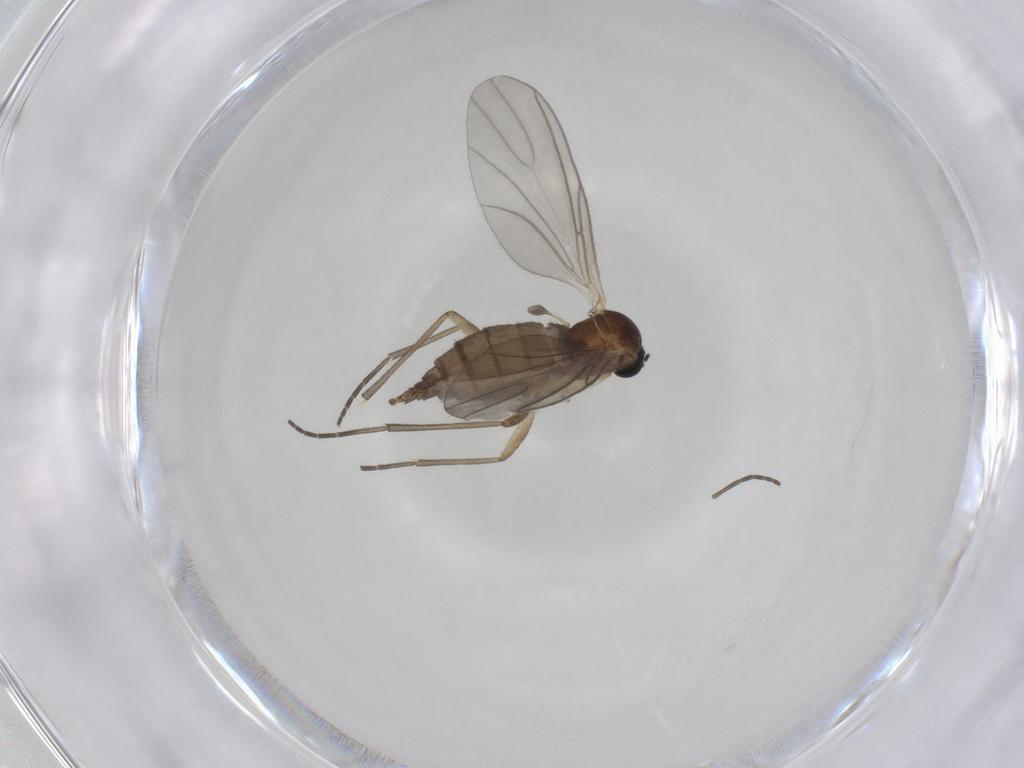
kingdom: Animalia
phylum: Arthropoda
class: Insecta
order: Diptera
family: Sciaridae
